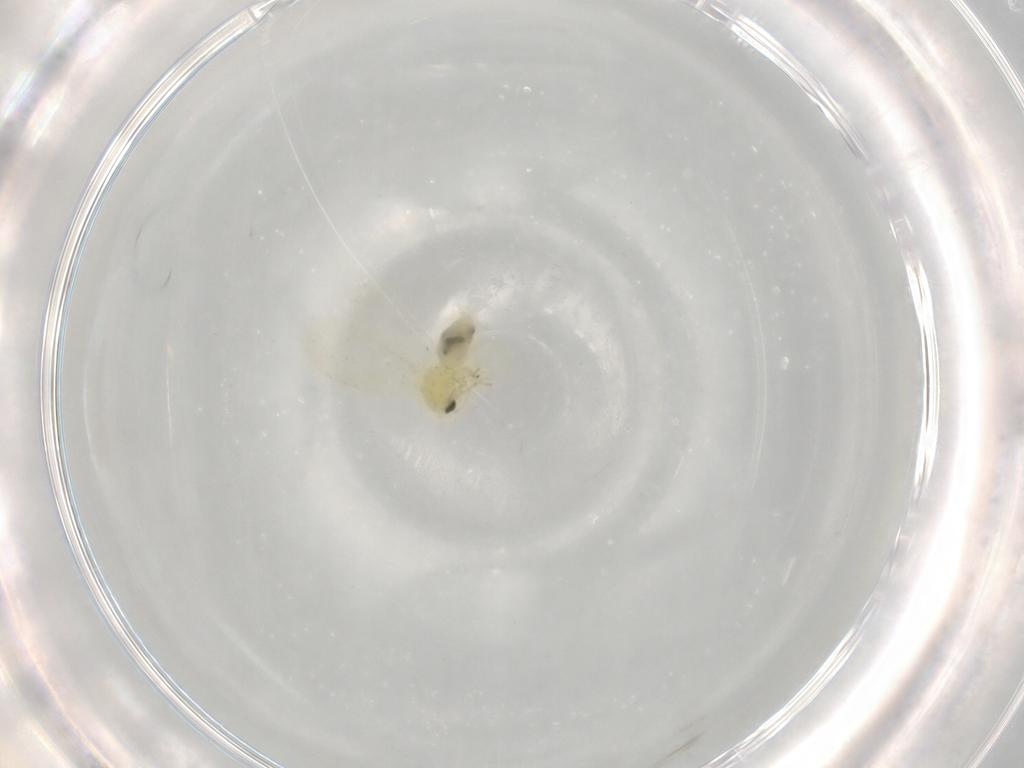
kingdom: Animalia
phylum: Arthropoda
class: Insecta
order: Hemiptera
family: Aleyrodidae
